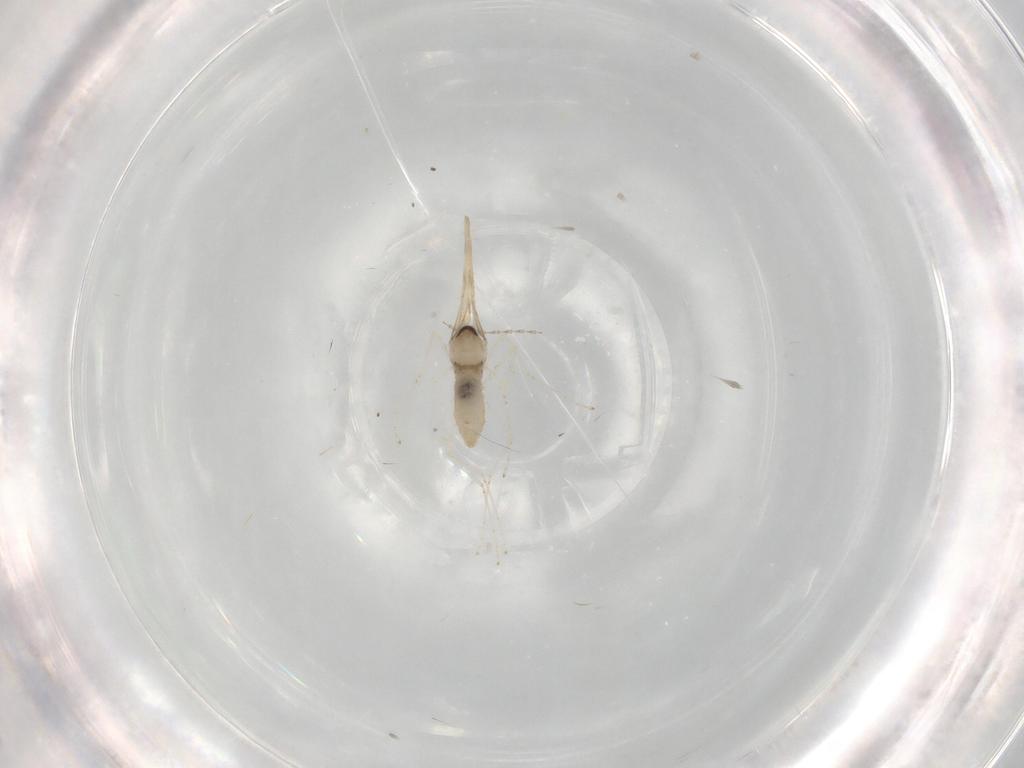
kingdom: Animalia
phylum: Arthropoda
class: Insecta
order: Diptera
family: Cecidomyiidae
